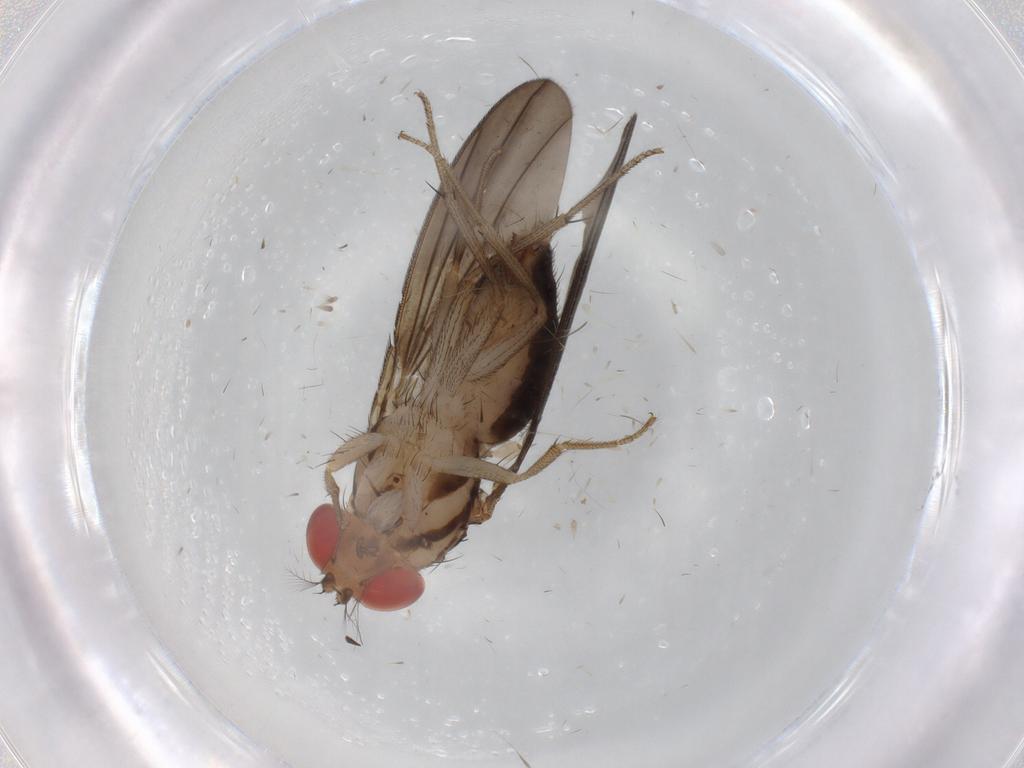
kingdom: Animalia
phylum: Arthropoda
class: Insecta
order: Diptera
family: Drosophilidae
